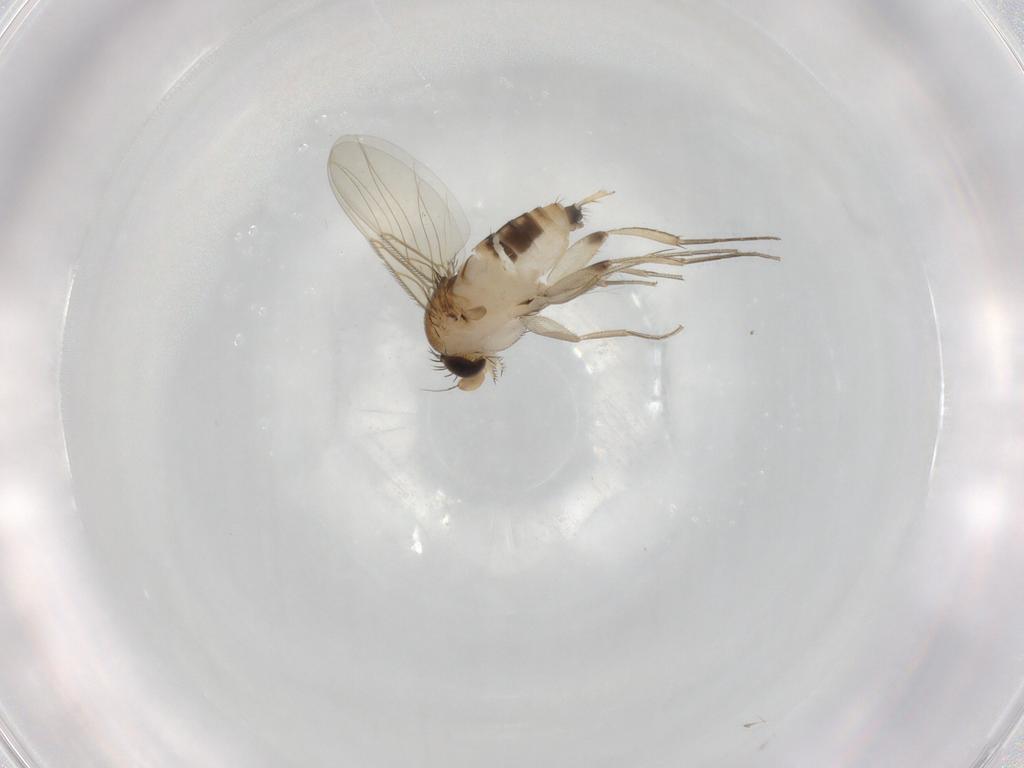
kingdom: Animalia
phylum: Arthropoda
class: Insecta
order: Diptera
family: Phoridae
